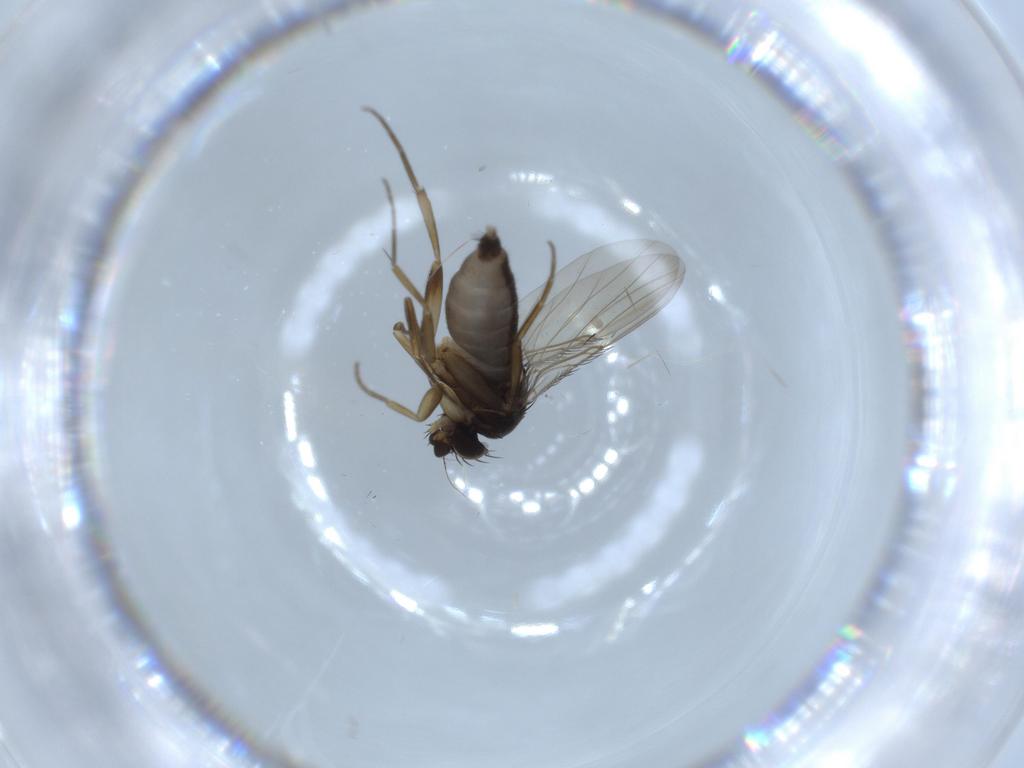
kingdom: Animalia
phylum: Arthropoda
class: Insecta
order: Diptera
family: Phoridae
